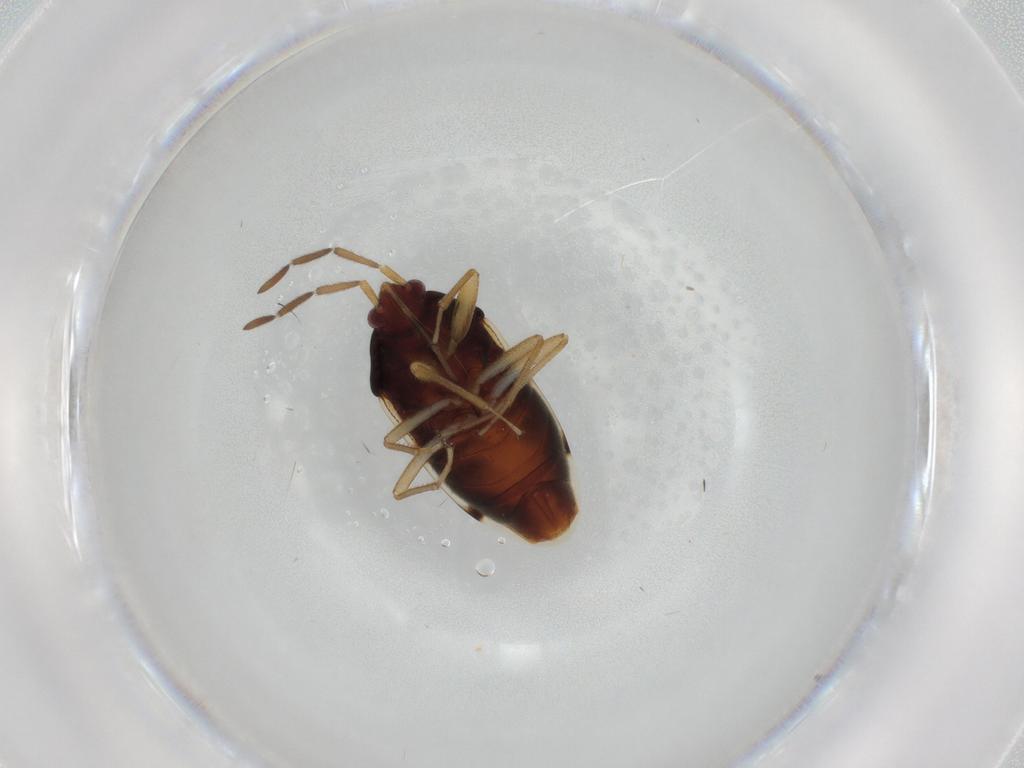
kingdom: Animalia
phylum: Arthropoda
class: Insecta
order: Hemiptera
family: Rhyparochromidae
